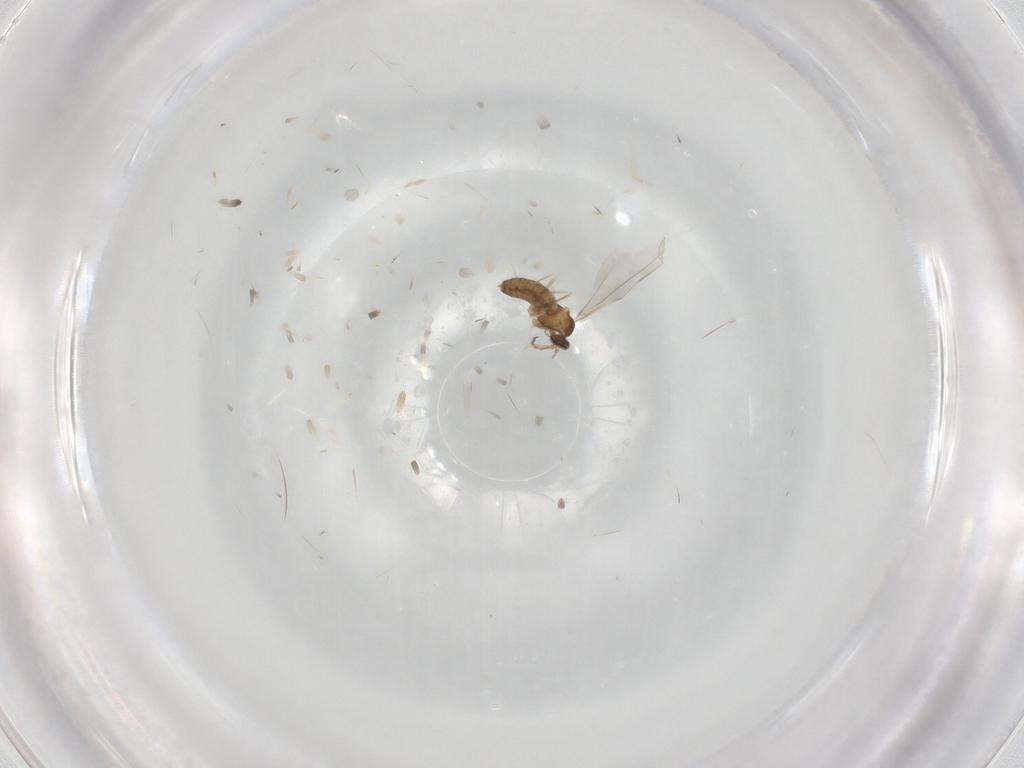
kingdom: Animalia
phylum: Arthropoda
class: Insecta
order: Diptera
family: Cecidomyiidae
